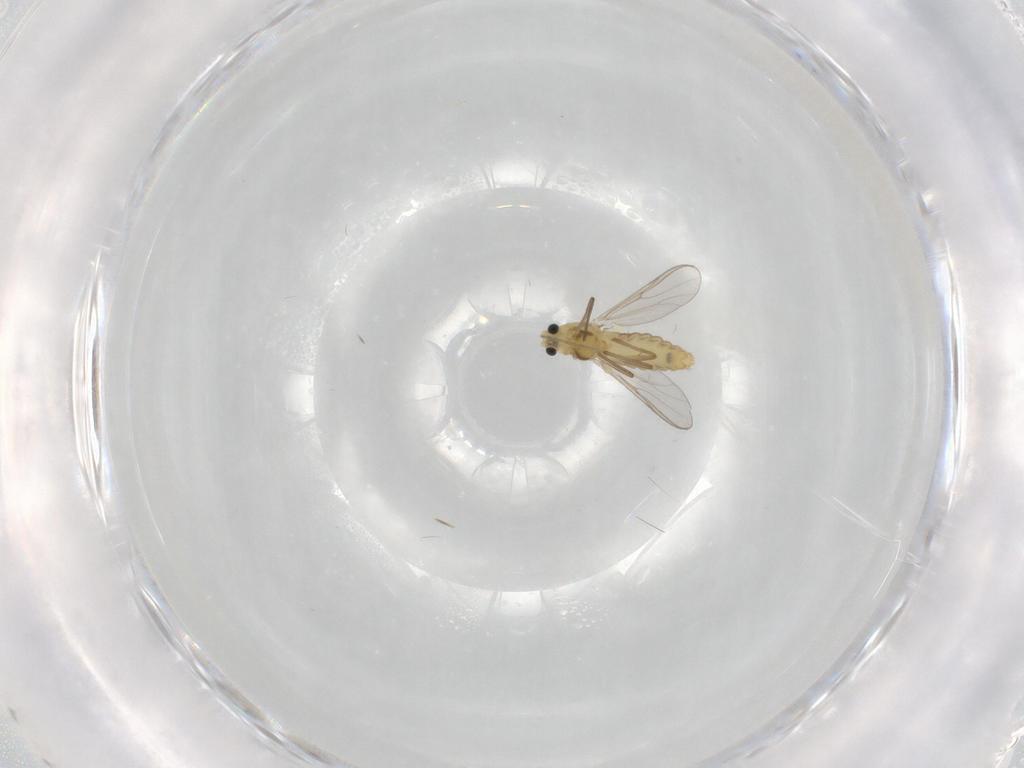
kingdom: Animalia
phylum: Arthropoda
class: Insecta
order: Diptera
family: Chironomidae
